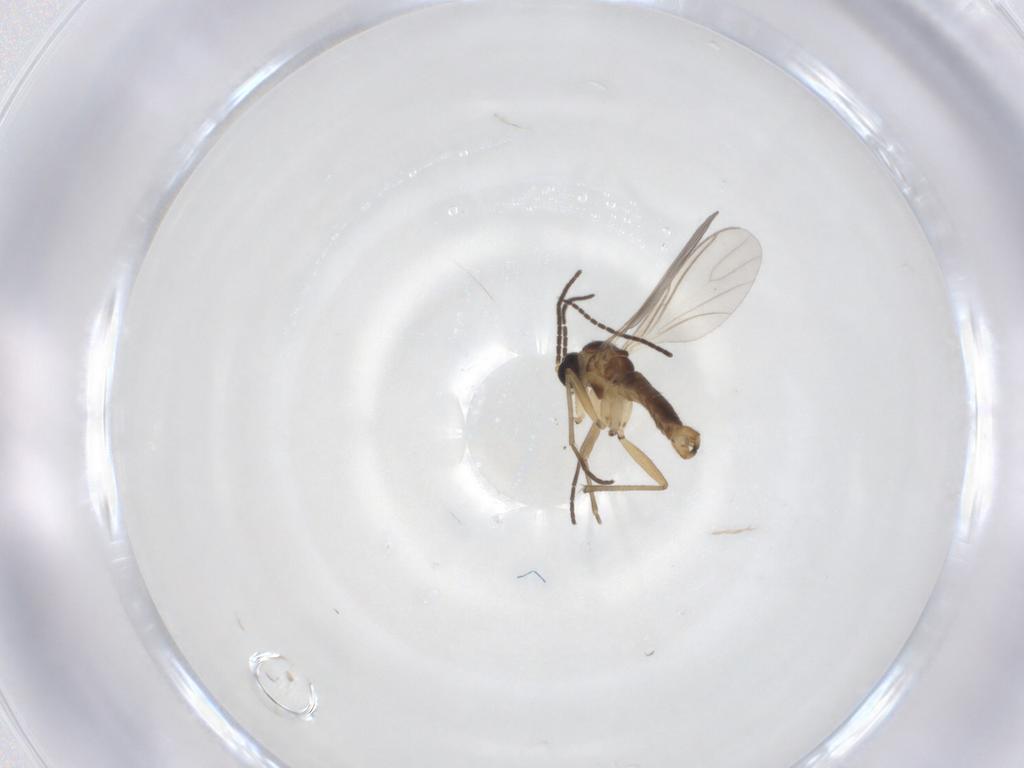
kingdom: Animalia
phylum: Arthropoda
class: Insecta
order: Diptera
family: Sciaridae
